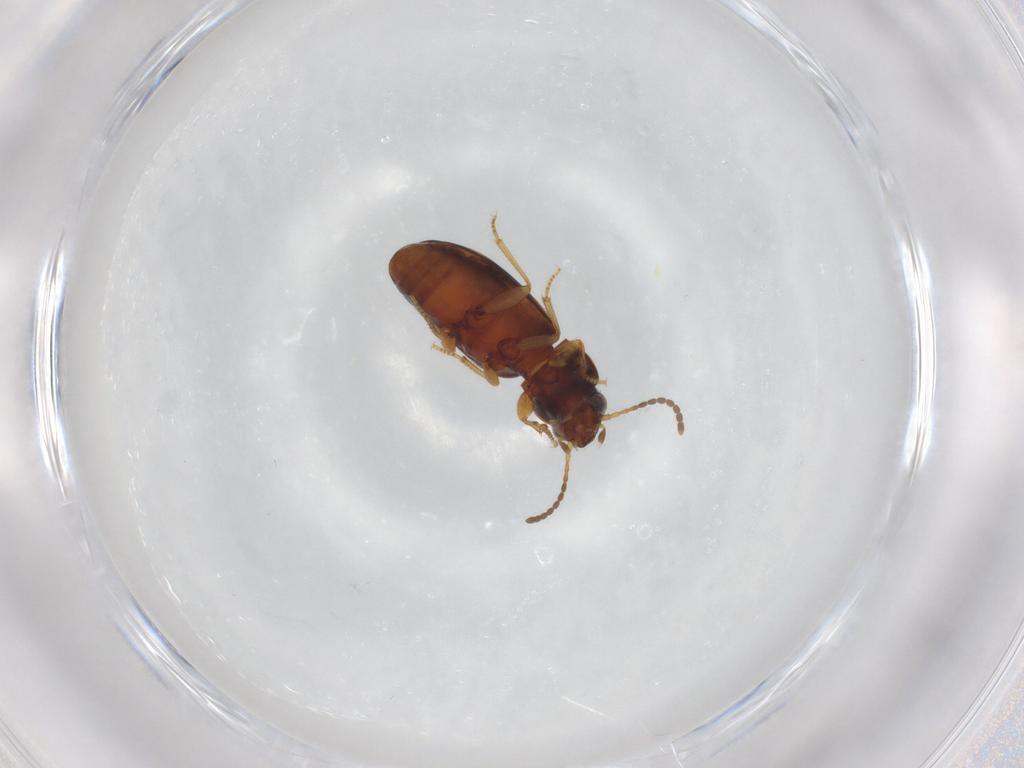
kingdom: Animalia
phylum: Arthropoda
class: Insecta
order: Coleoptera
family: Carabidae
